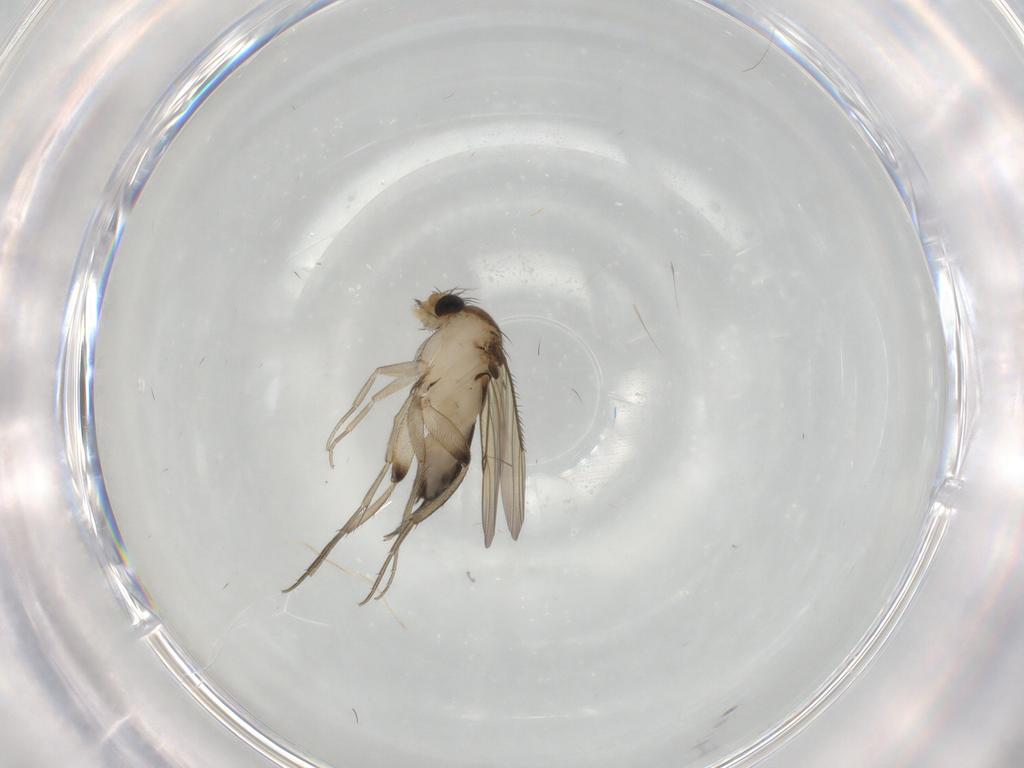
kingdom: Animalia
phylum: Arthropoda
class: Insecta
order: Diptera
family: Phoridae
